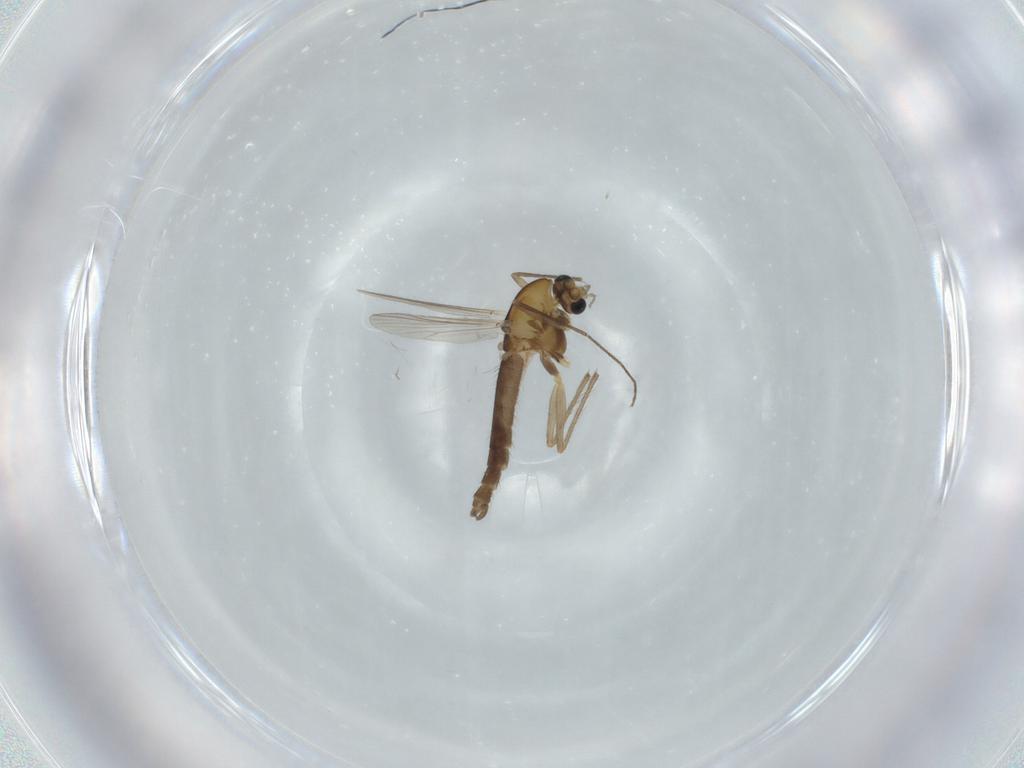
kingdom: Animalia
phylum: Arthropoda
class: Insecta
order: Diptera
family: Chironomidae
